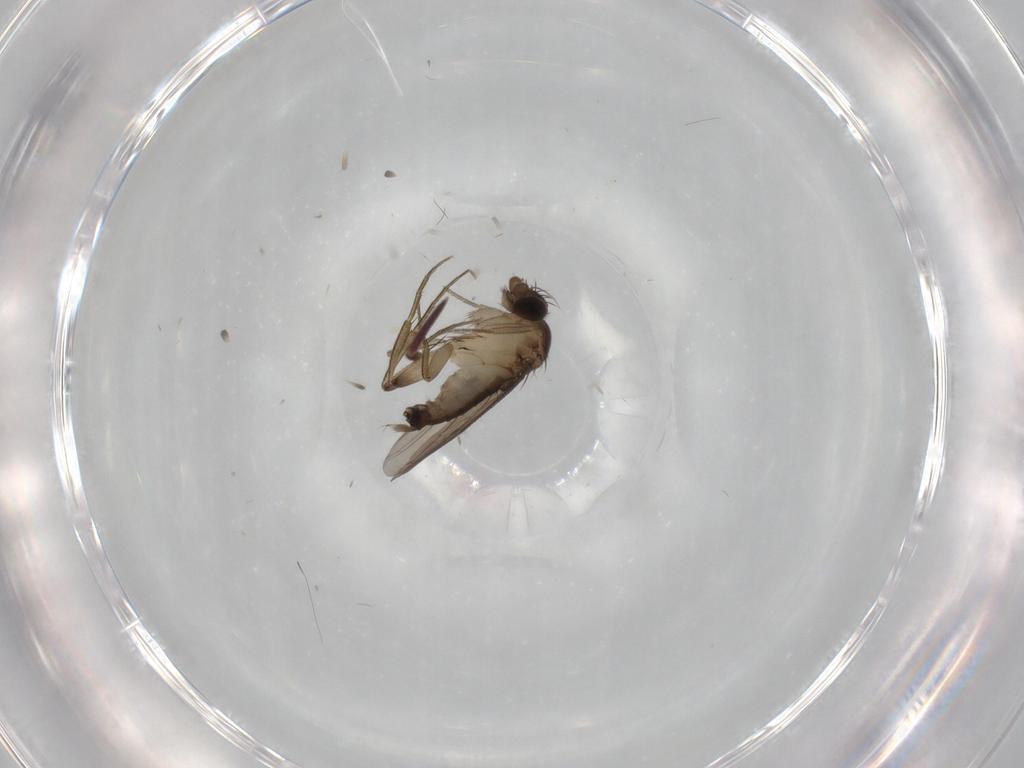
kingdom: Animalia
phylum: Arthropoda
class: Insecta
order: Diptera
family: Phoridae
